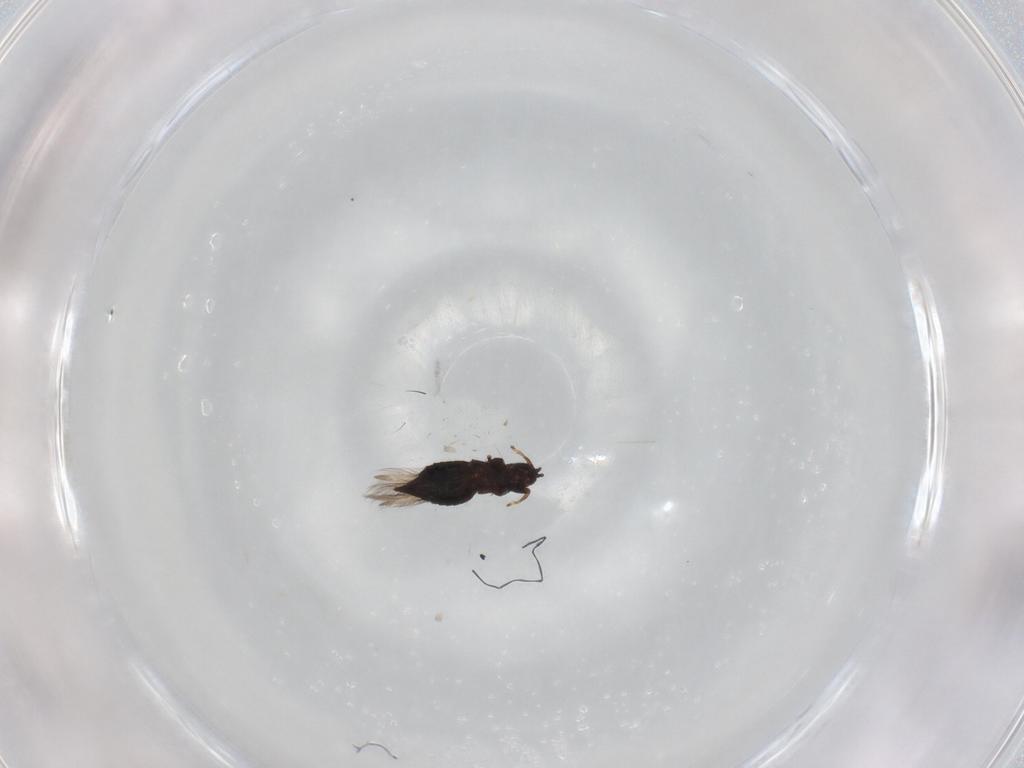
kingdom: Animalia
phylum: Arthropoda
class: Insecta
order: Thysanoptera
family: Thripidae
